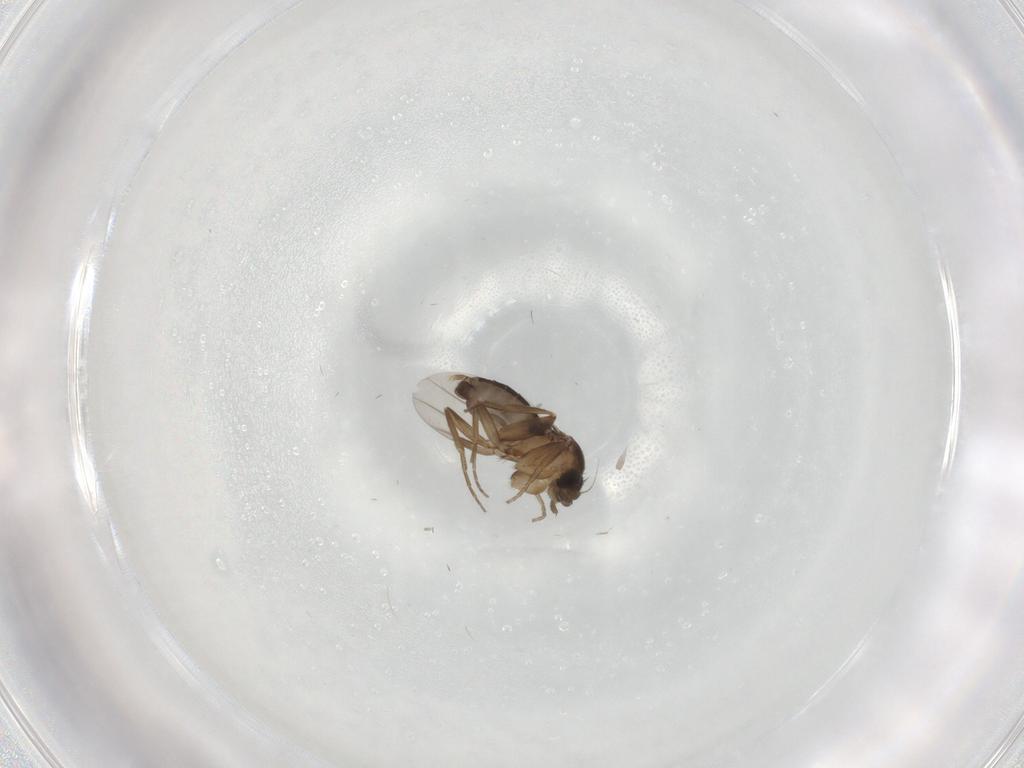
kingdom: Animalia
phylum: Arthropoda
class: Insecta
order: Diptera
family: Phoridae
